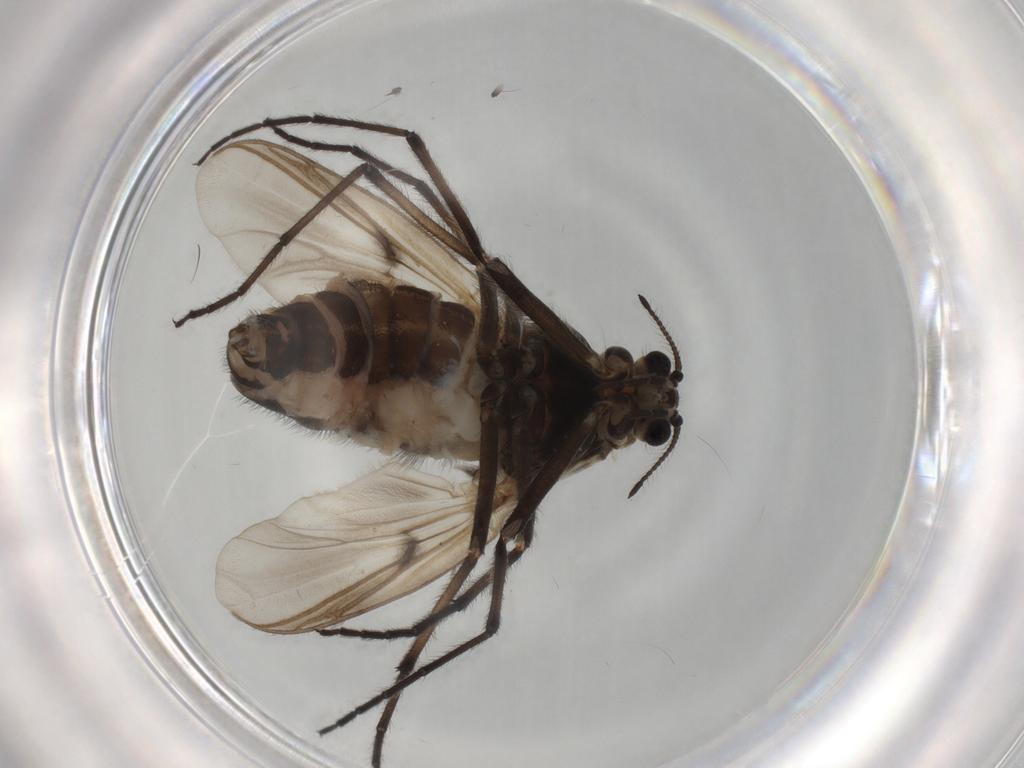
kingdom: Animalia
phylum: Arthropoda
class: Insecta
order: Diptera
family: Chironomidae
